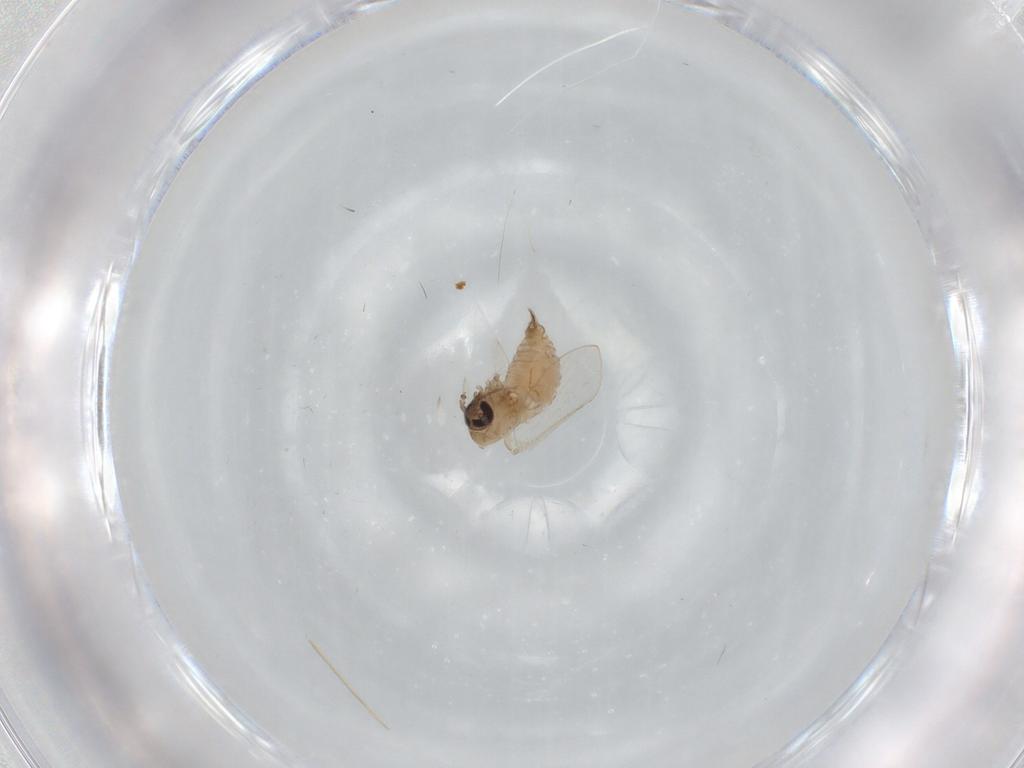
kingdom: Animalia
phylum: Arthropoda
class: Insecta
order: Diptera
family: Psychodidae
